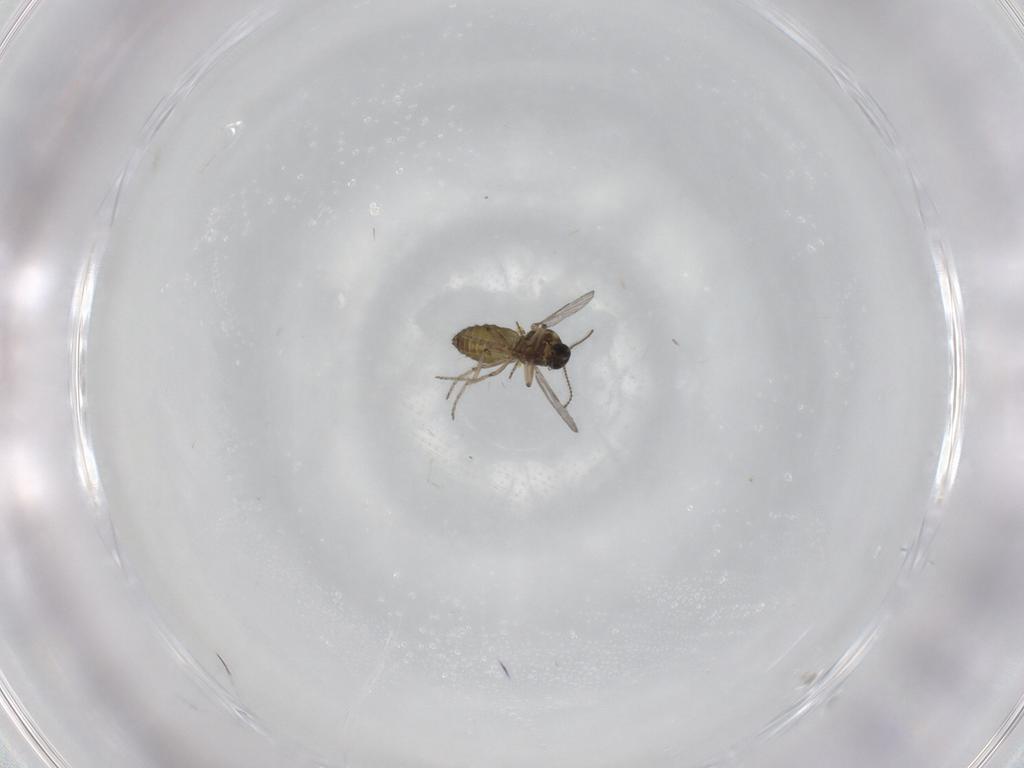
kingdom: Animalia
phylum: Arthropoda
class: Insecta
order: Diptera
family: Ceratopogonidae
